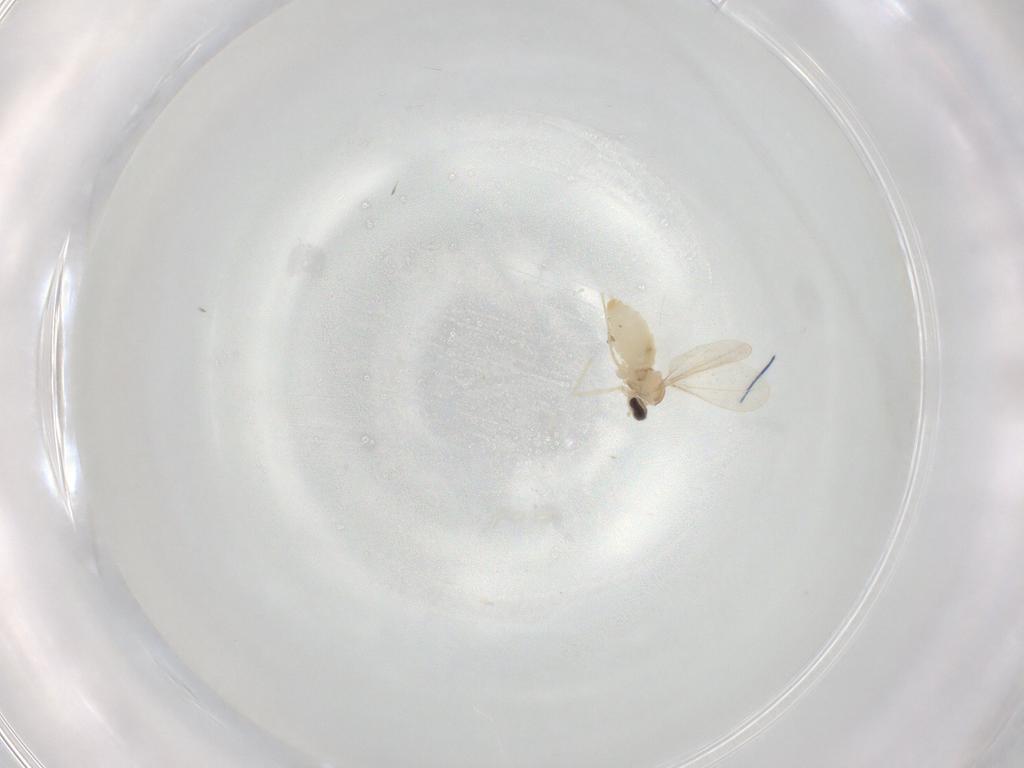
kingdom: Animalia
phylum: Arthropoda
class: Insecta
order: Diptera
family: Cecidomyiidae
